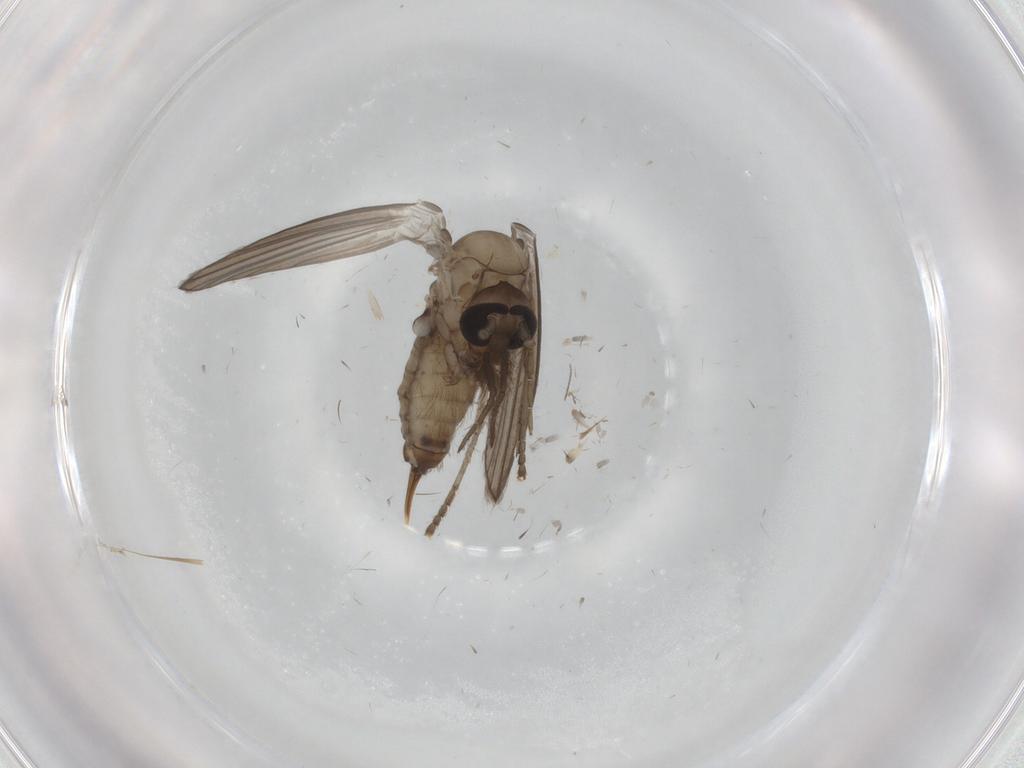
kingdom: Animalia
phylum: Arthropoda
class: Insecta
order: Diptera
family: Psychodidae
